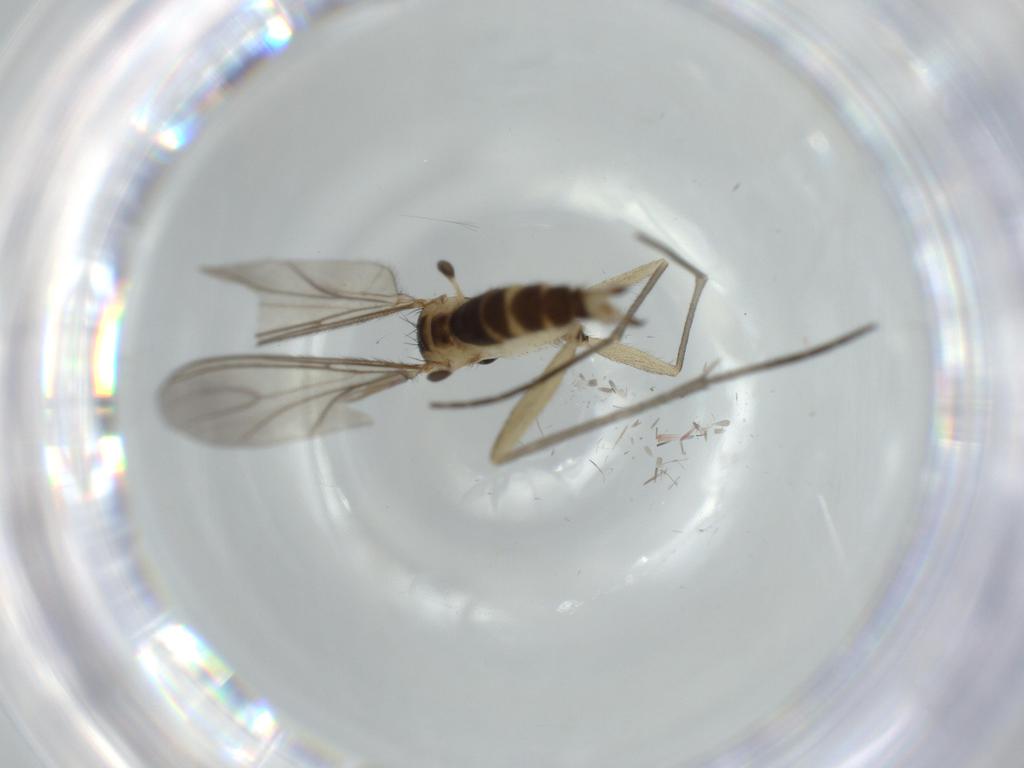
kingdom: Animalia
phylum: Arthropoda
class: Insecta
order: Diptera
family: Sciaridae
